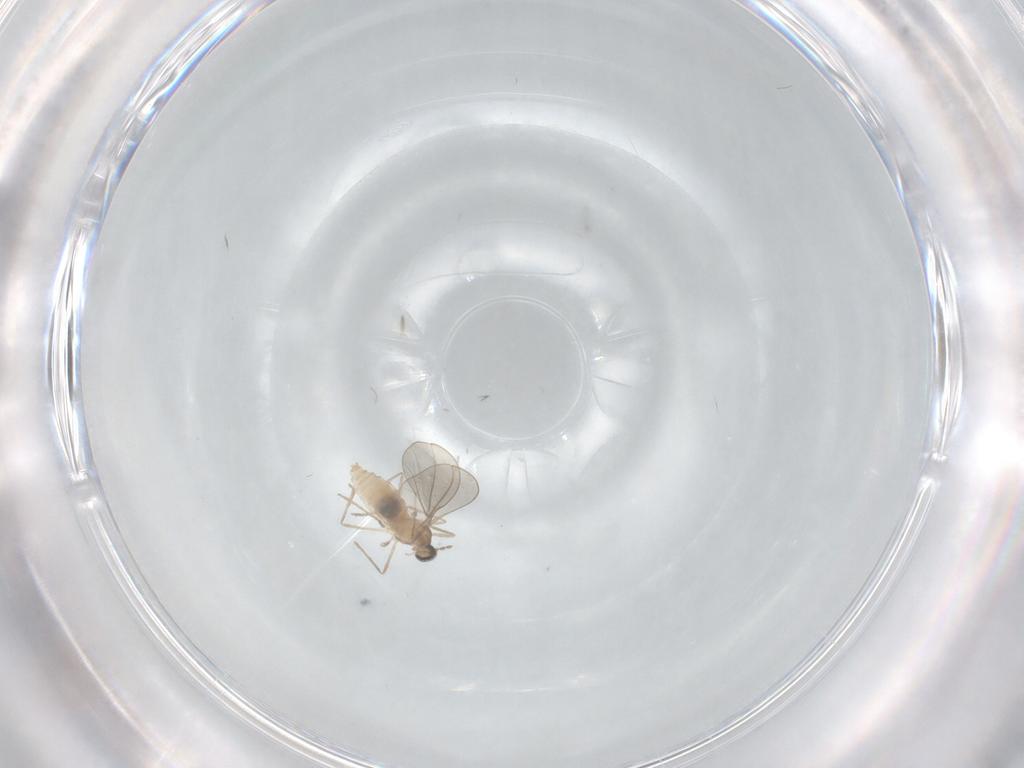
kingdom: Animalia
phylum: Arthropoda
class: Insecta
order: Diptera
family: Cecidomyiidae
